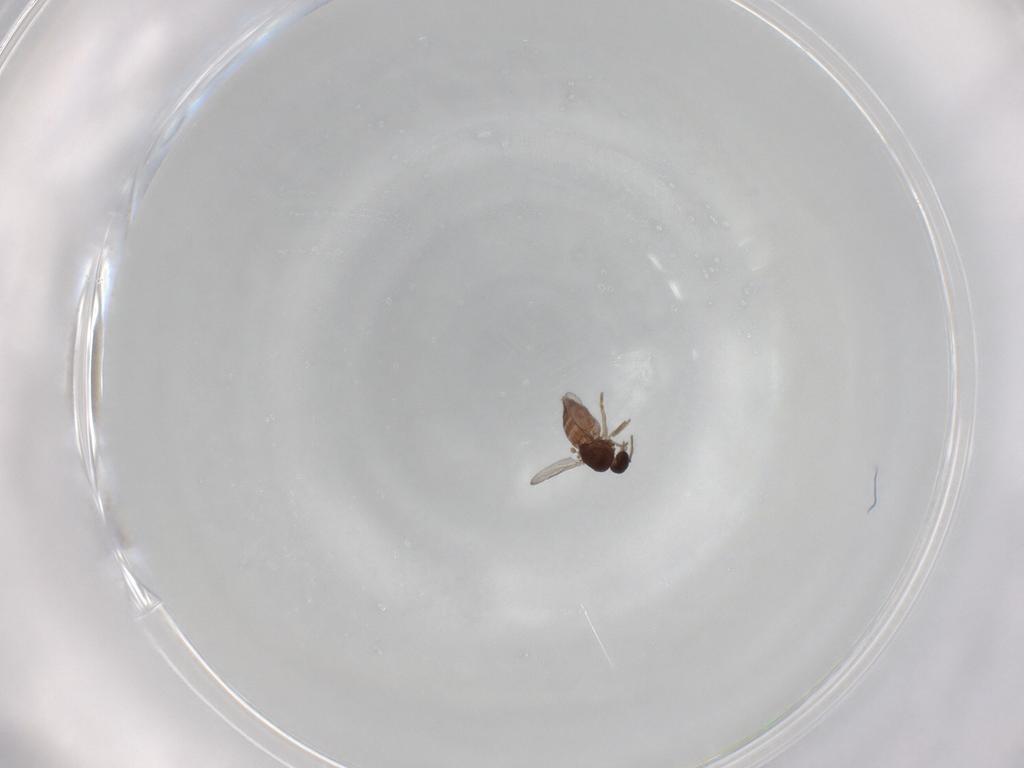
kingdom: Animalia
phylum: Arthropoda
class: Insecta
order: Diptera
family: Ceratopogonidae
